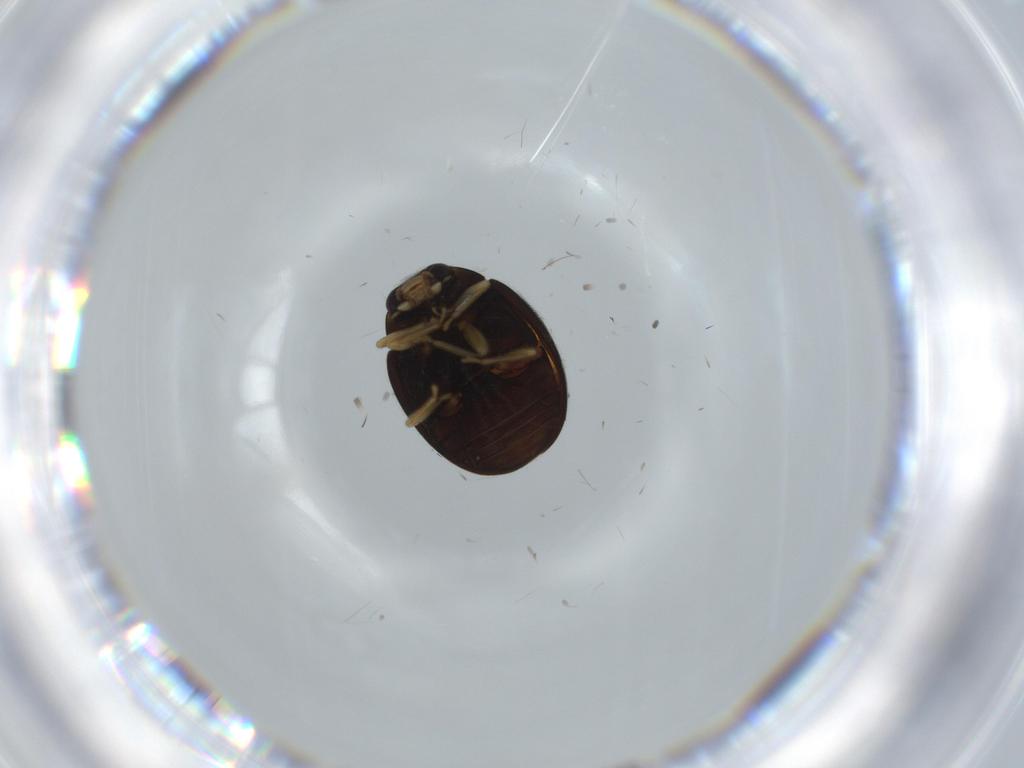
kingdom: Animalia
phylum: Arthropoda
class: Insecta
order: Coleoptera
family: Coccinellidae
